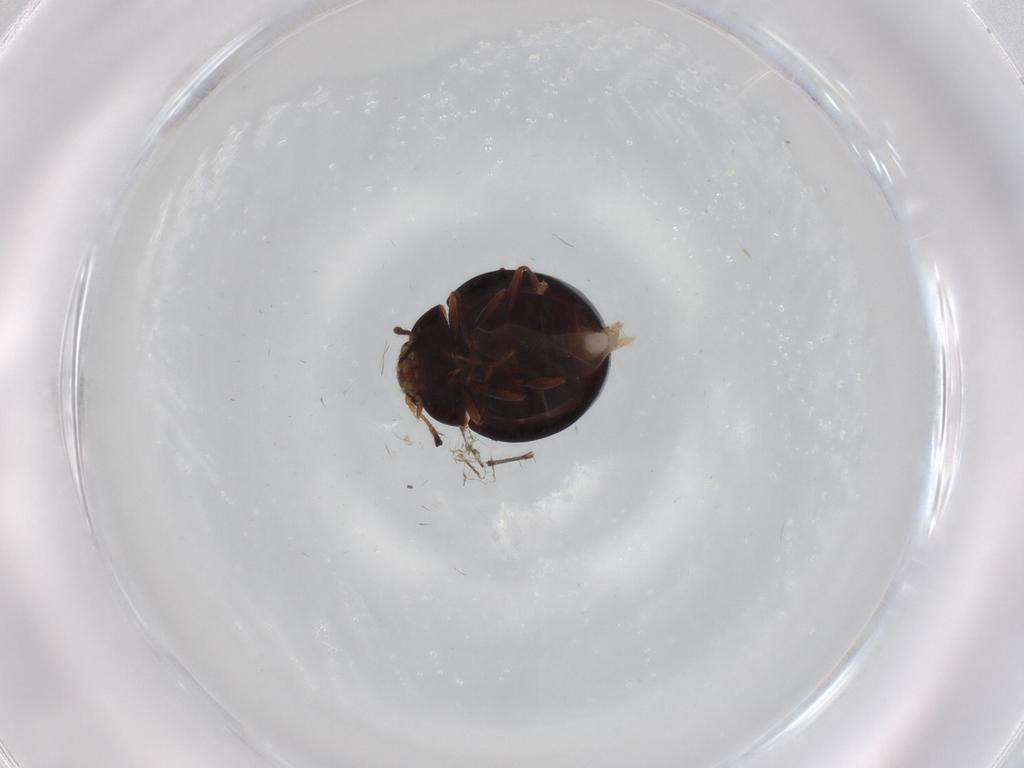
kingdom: Animalia
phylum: Arthropoda
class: Insecta
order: Coleoptera
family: Anamorphidae
